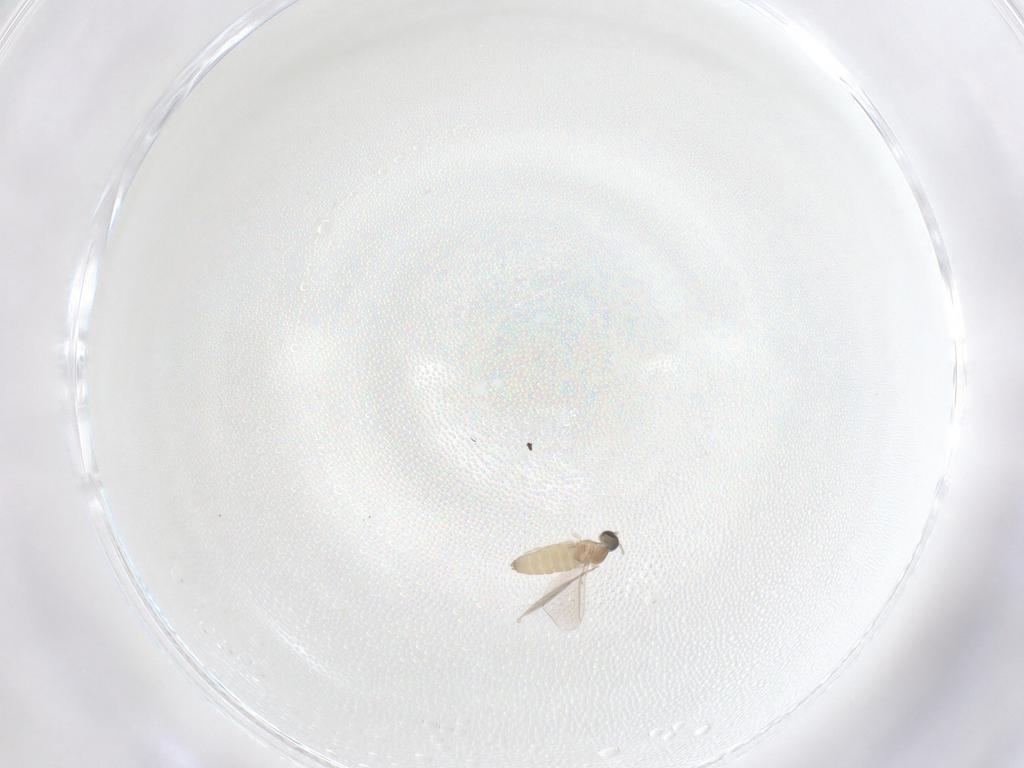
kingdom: Animalia
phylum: Arthropoda
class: Insecta
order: Diptera
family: Cecidomyiidae
